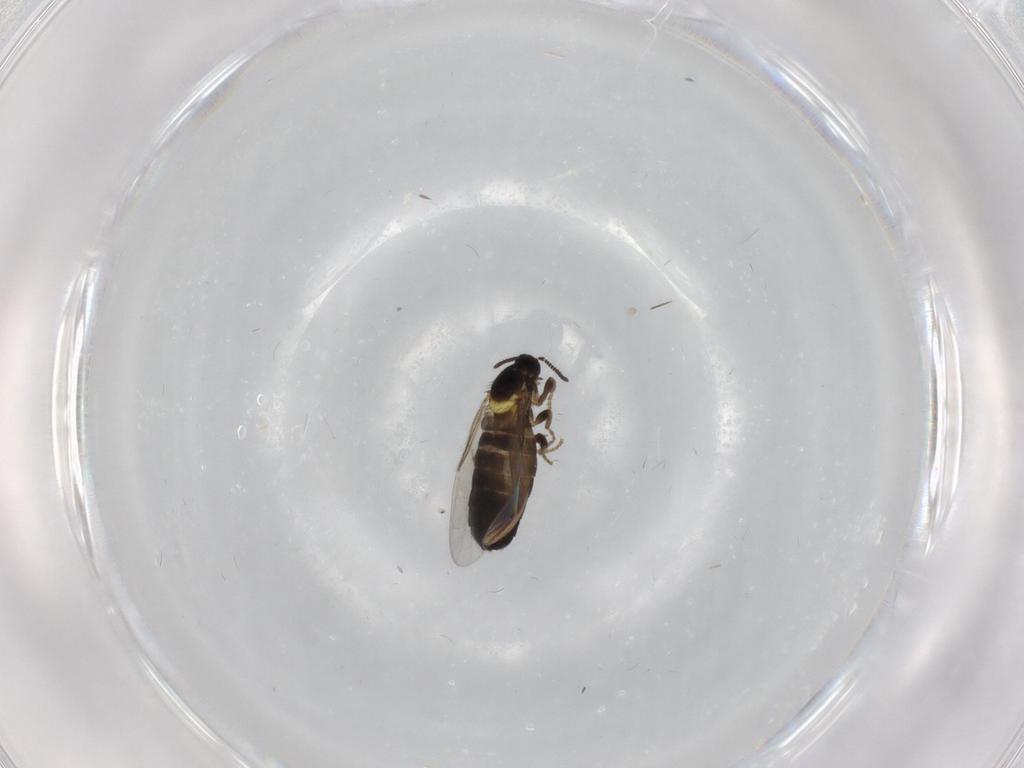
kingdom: Animalia
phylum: Arthropoda
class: Insecta
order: Diptera
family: Scatopsidae
